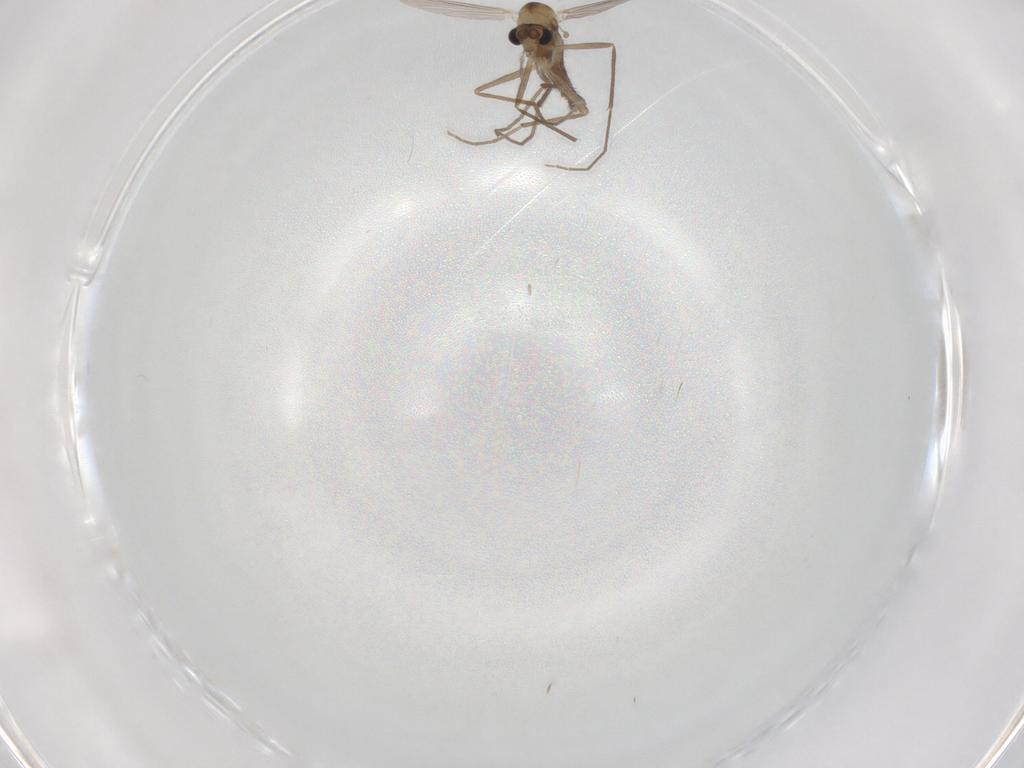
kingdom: Animalia
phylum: Arthropoda
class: Insecta
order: Diptera
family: Chironomidae
